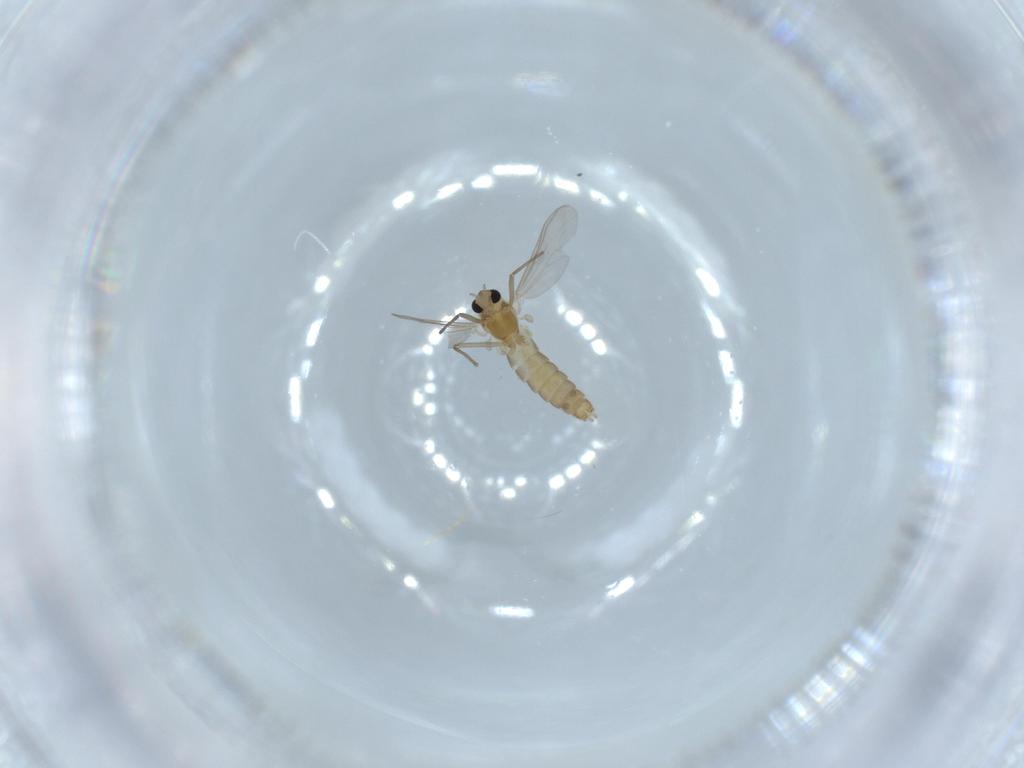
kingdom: Animalia
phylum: Arthropoda
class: Insecta
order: Diptera
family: Chironomidae
